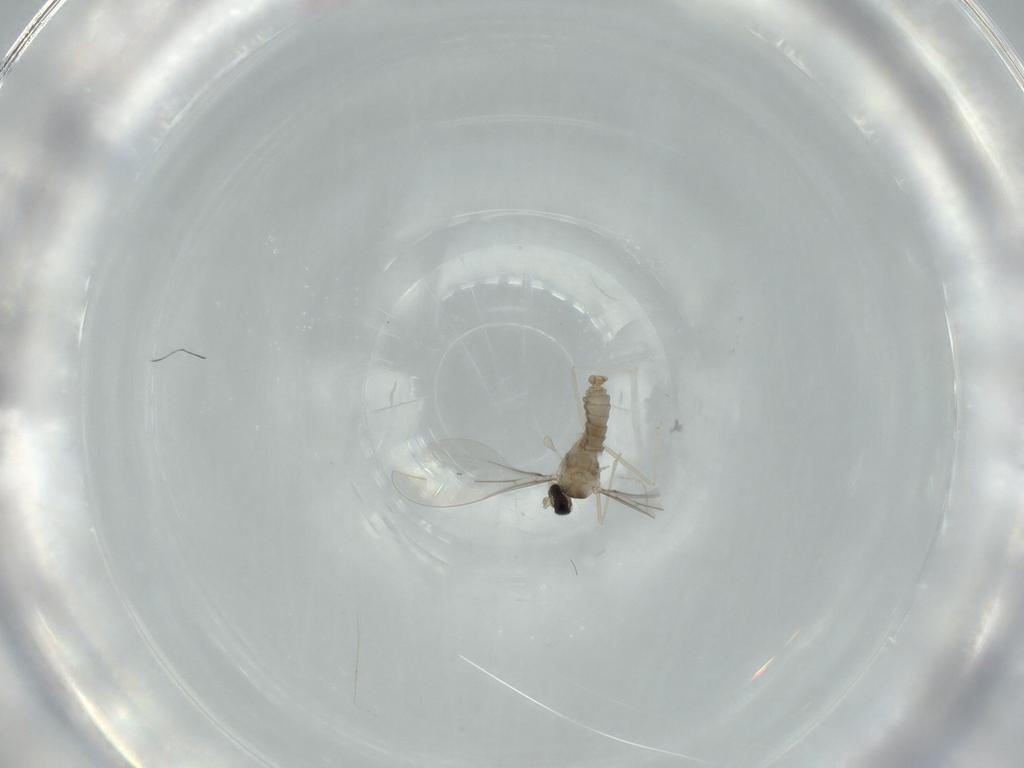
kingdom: Animalia
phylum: Arthropoda
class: Insecta
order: Diptera
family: Cecidomyiidae
